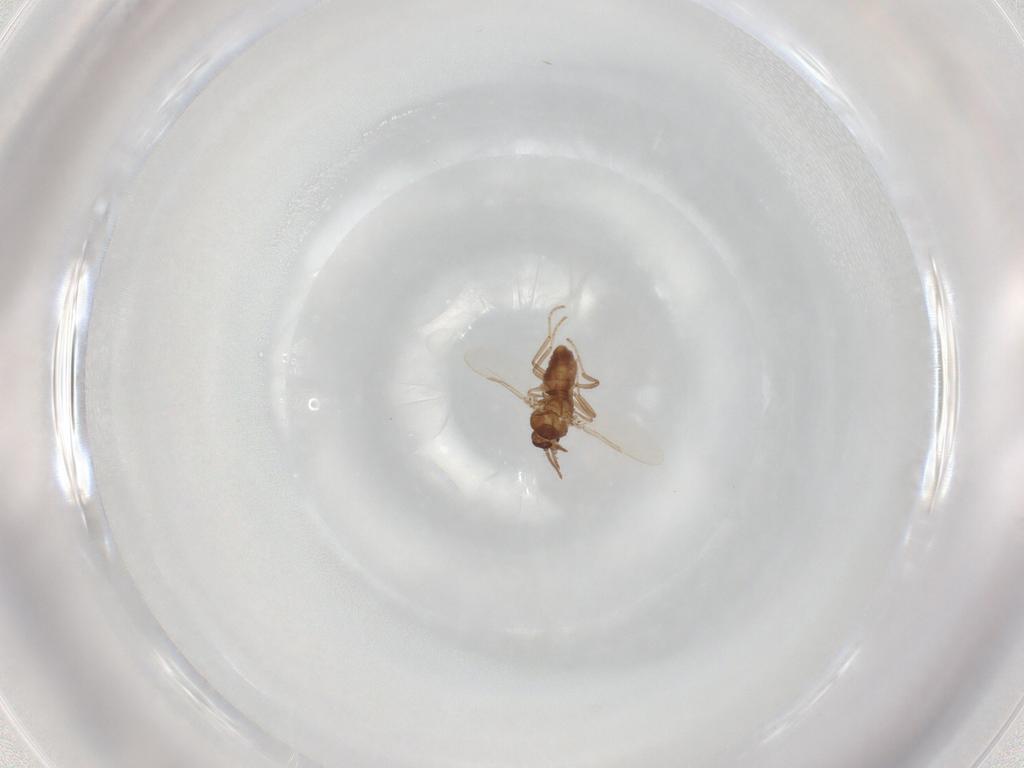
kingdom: Animalia
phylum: Arthropoda
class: Insecta
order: Diptera
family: Ceratopogonidae
